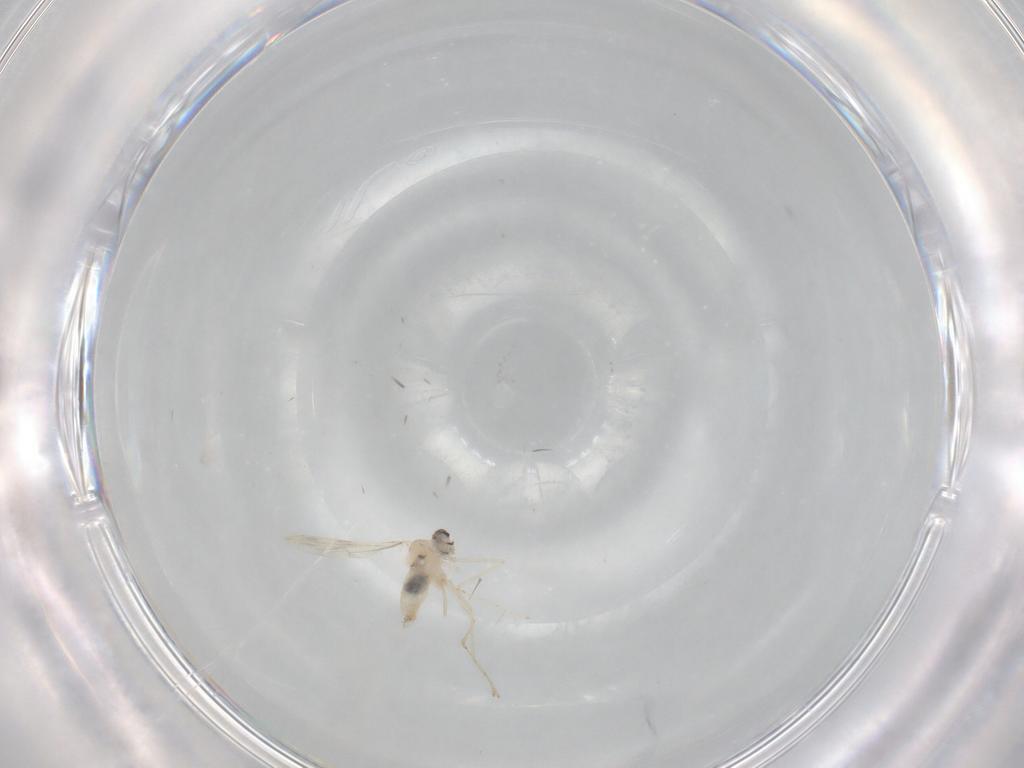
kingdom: Animalia
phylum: Arthropoda
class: Insecta
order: Diptera
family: Cecidomyiidae
